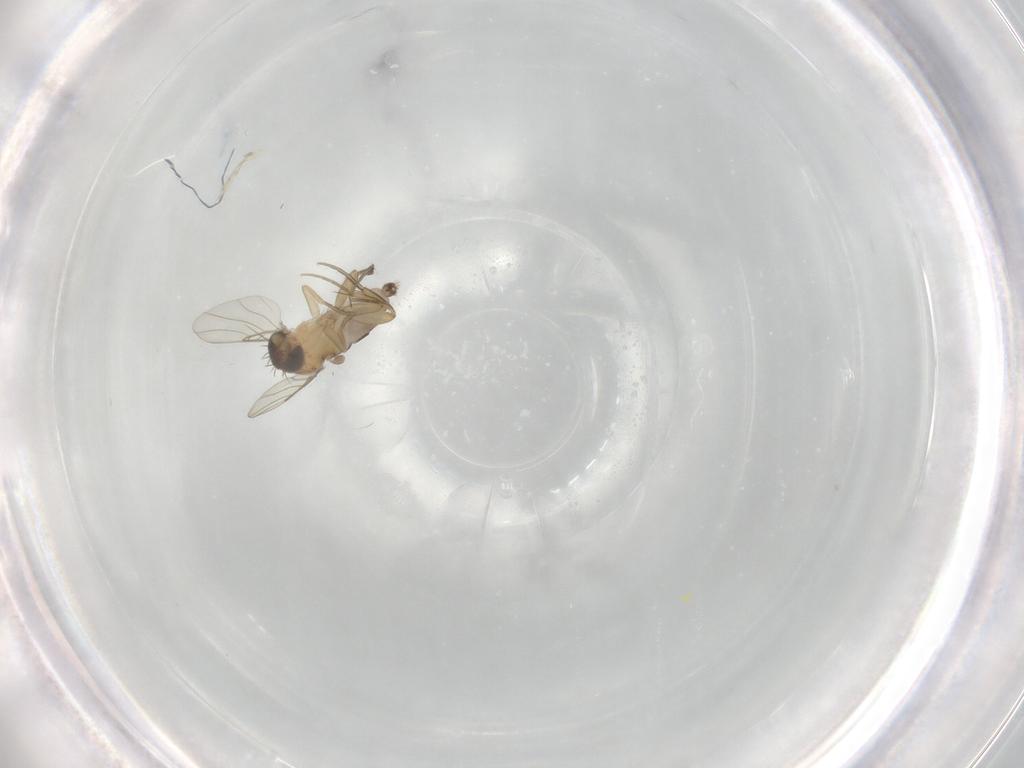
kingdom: Animalia
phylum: Arthropoda
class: Insecta
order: Diptera
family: Phoridae
